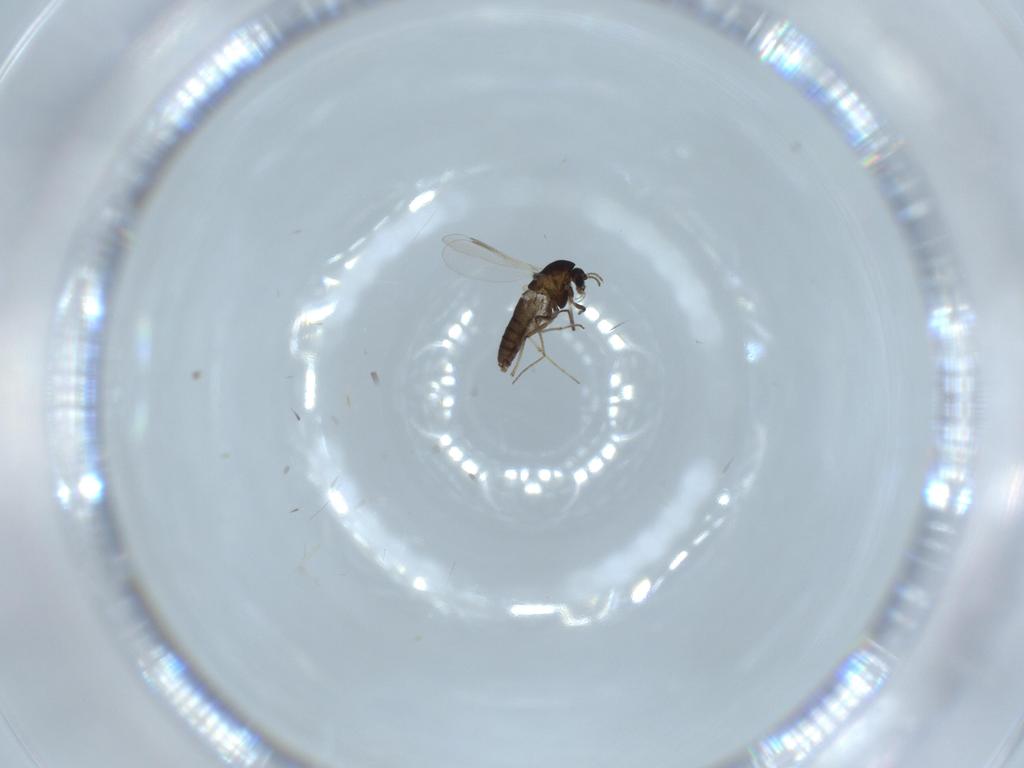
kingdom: Animalia
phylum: Arthropoda
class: Insecta
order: Diptera
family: Chironomidae
